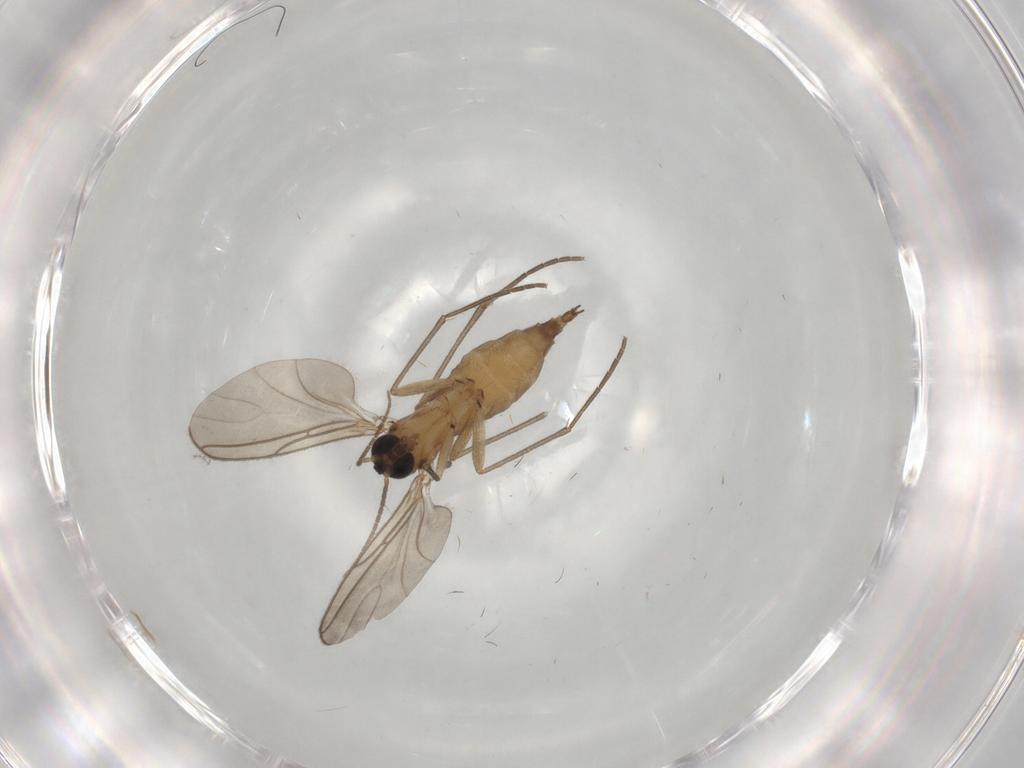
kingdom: Animalia
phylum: Arthropoda
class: Insecta
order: Diptera
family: Sciaridae
